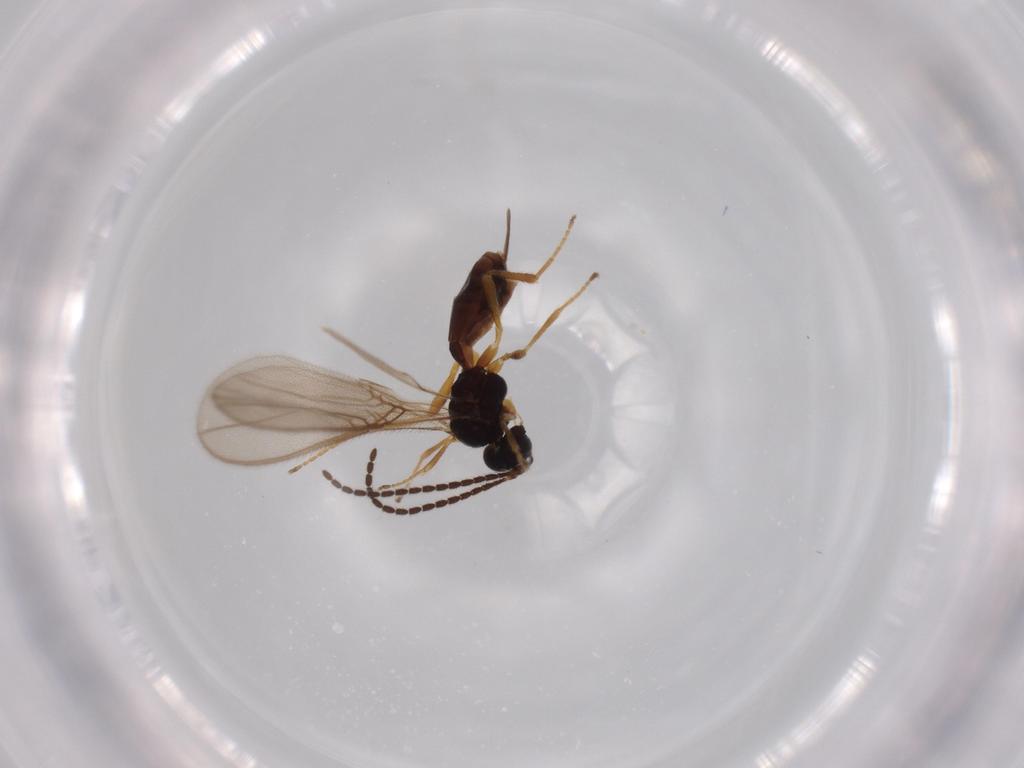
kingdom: Animalia
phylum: Arthropoda
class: Insecta
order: Hymenoptera
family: Braconidae
